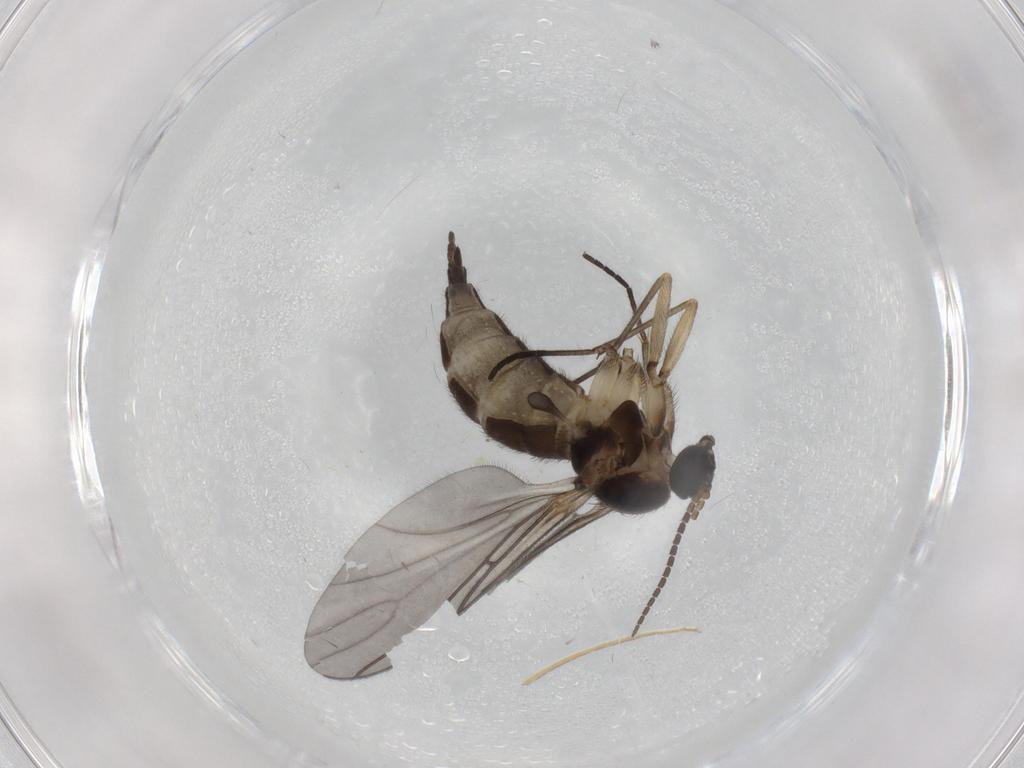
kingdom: Animalia
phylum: Arthropoda
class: Insecta
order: Diptera
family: Sciaridae
